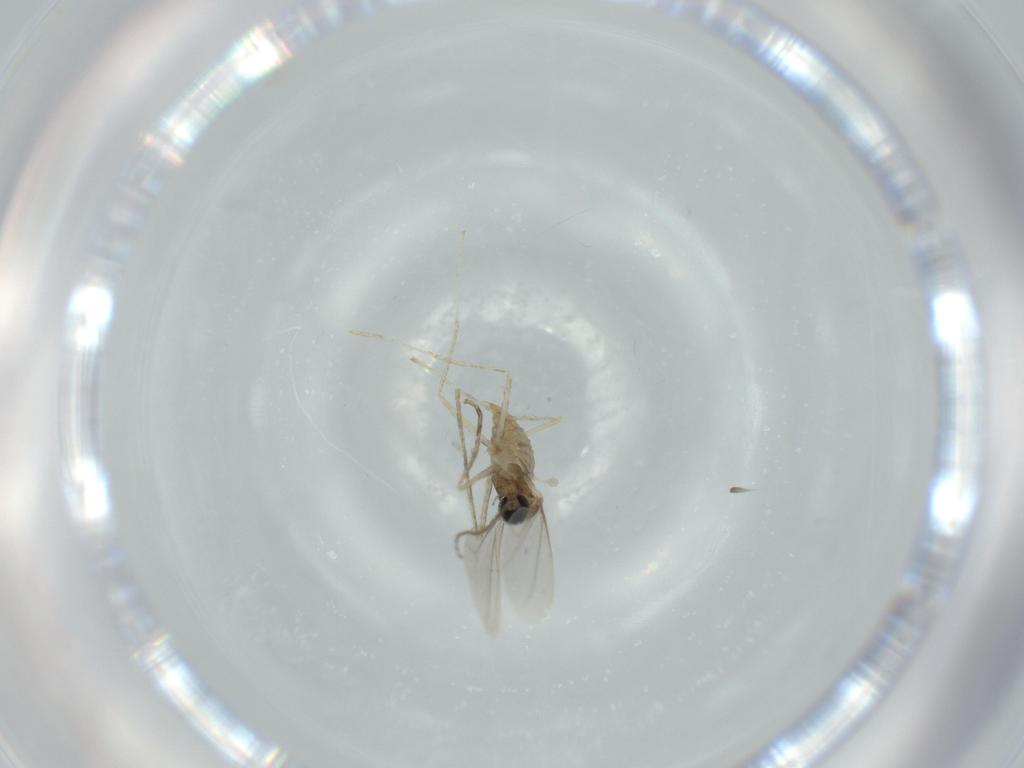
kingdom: Animalia
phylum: Arthropoda
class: Insecta
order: Diptera
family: Cecidomyiidae
